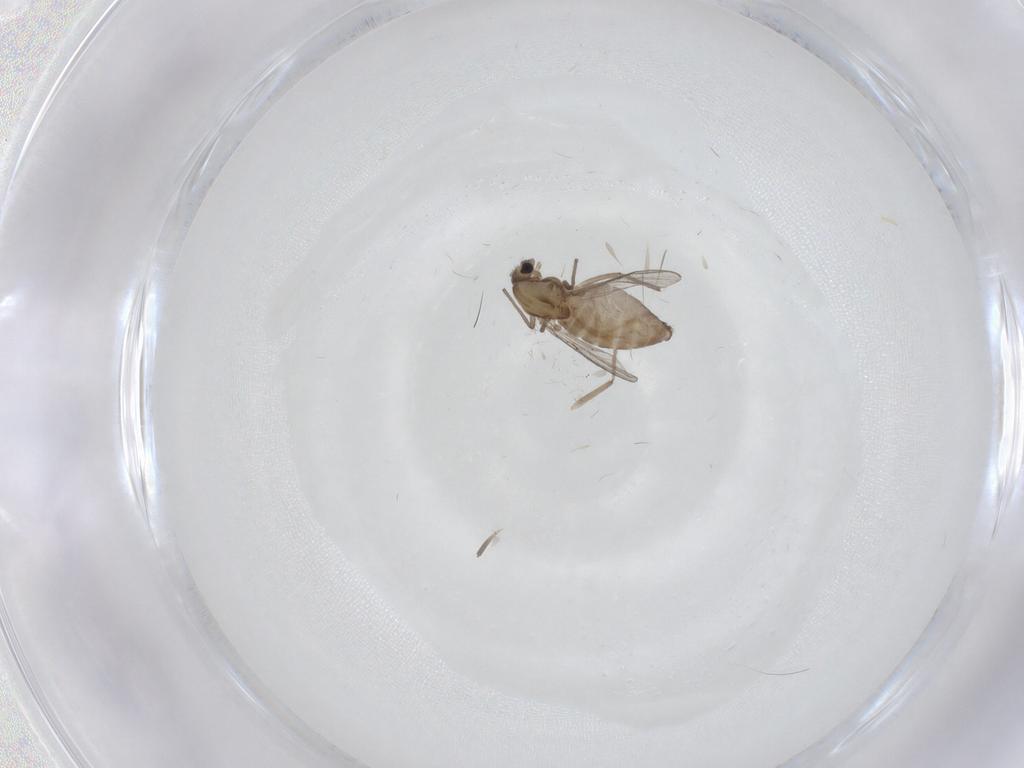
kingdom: Animalia
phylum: Arthropoda
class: Insecta
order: Diptera
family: Chironomidae
